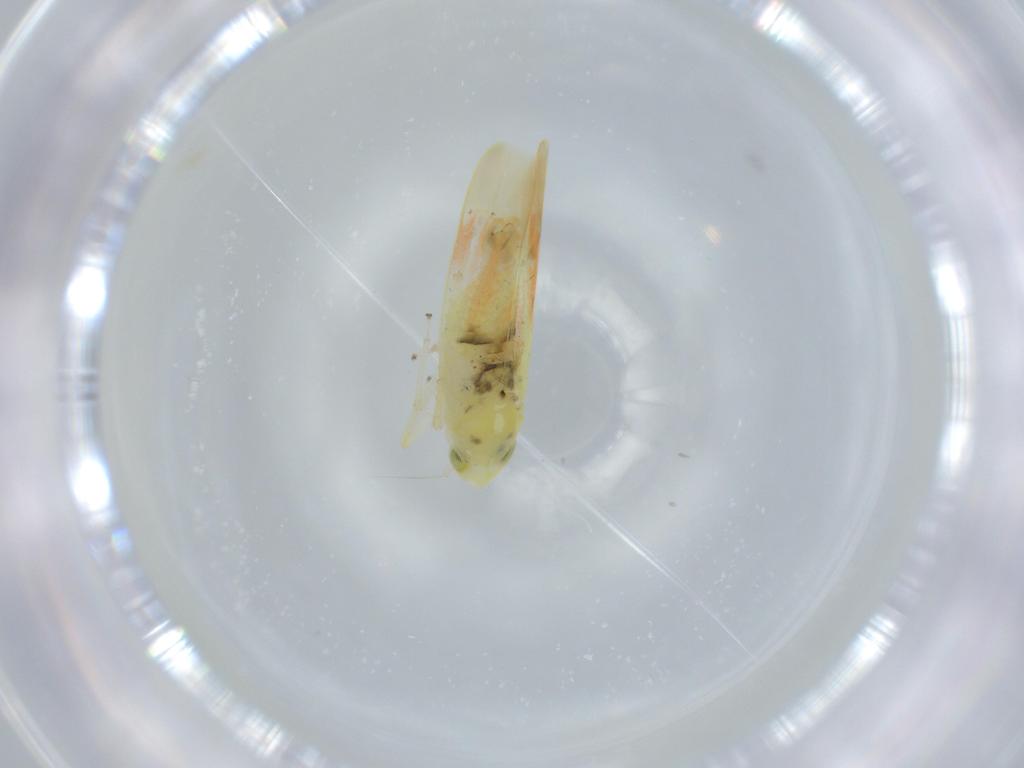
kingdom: Animalia
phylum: Arthropoda
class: Insecta
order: Hemiptera
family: Cicadellidae
